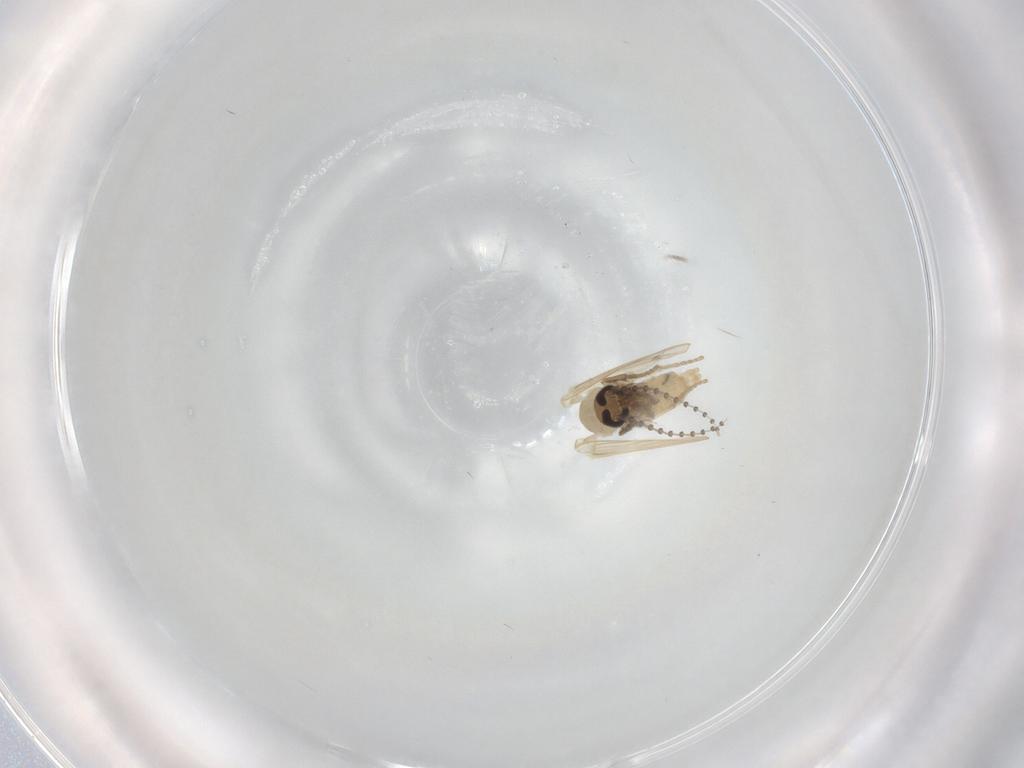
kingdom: Animalia
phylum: Arthropoda
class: Insecta
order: Diptera
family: Psychodidae
